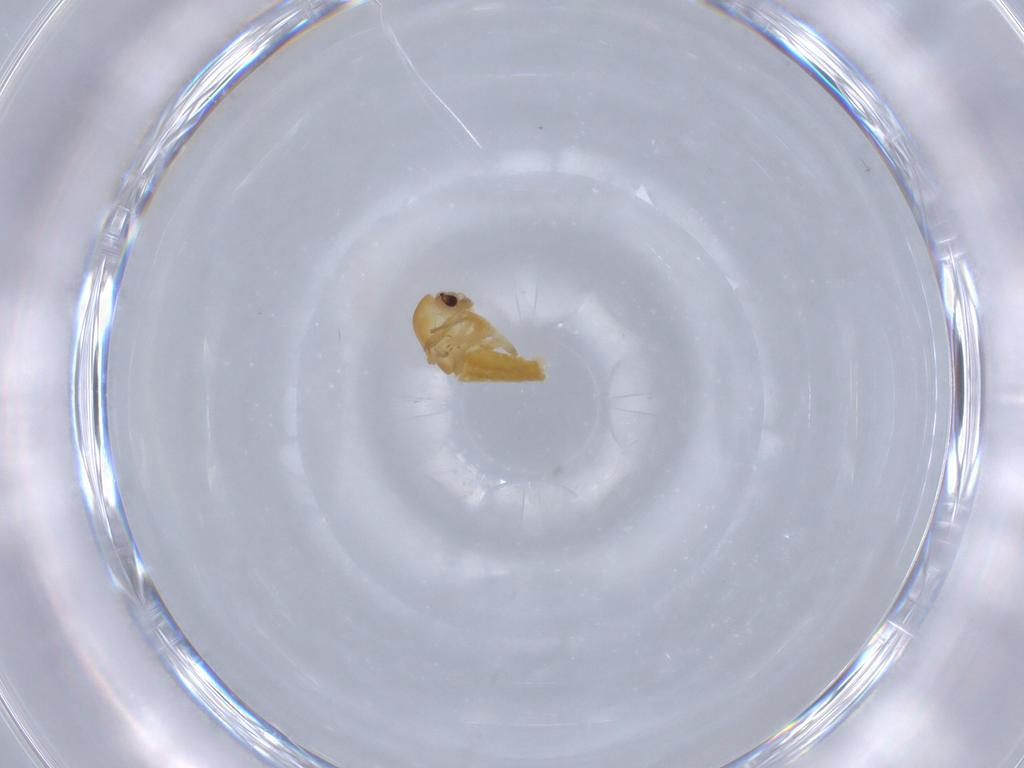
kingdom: Animalia
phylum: Arthropoda
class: Insecta
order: Diptera
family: Chironomidae
